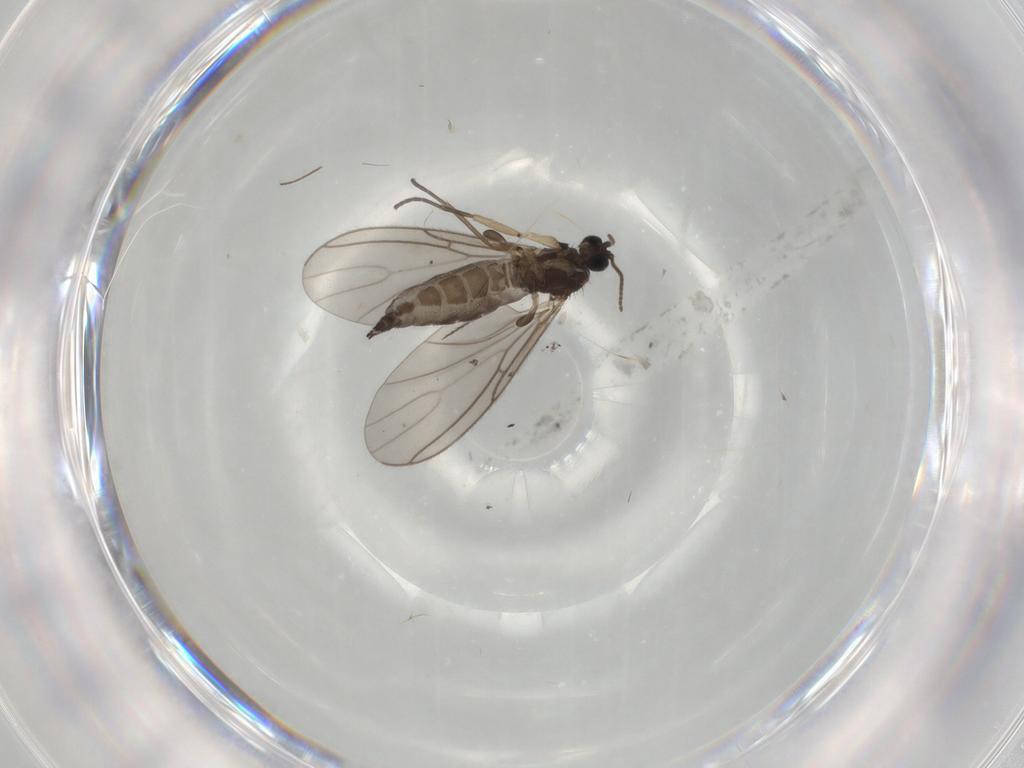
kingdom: Animalia
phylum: Arthropoda
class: Insecta
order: Diptera
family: Sciaridae
